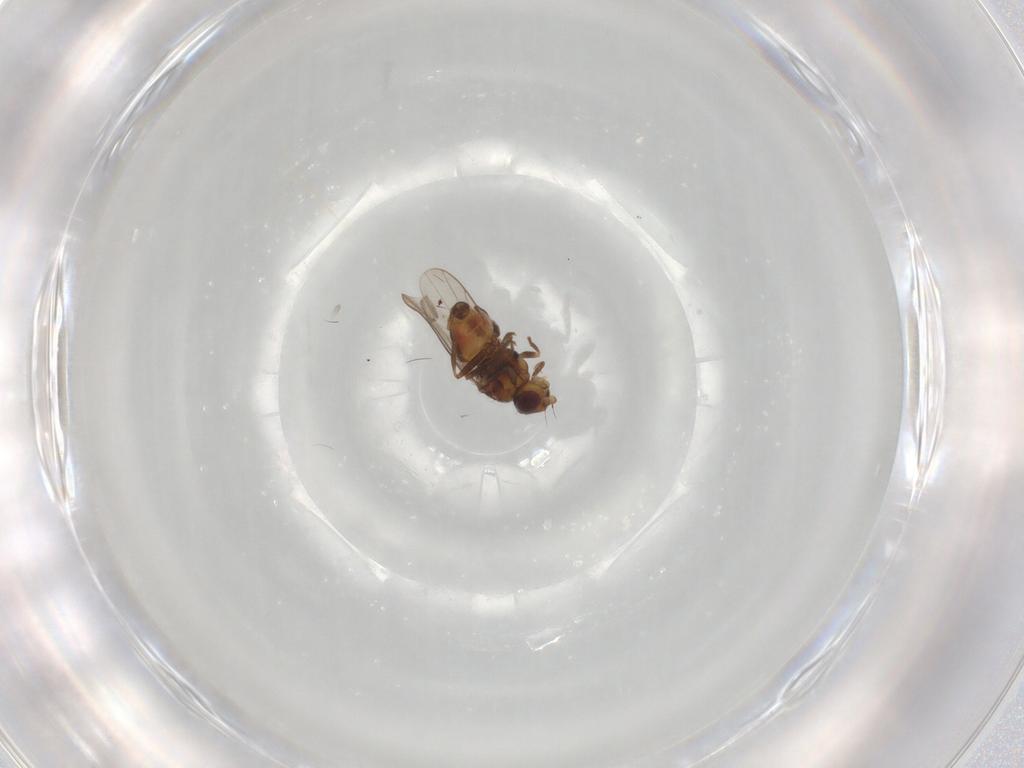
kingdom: Animalia
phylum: Arthropoda
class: Insecta
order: Diptera
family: Chloropidae
